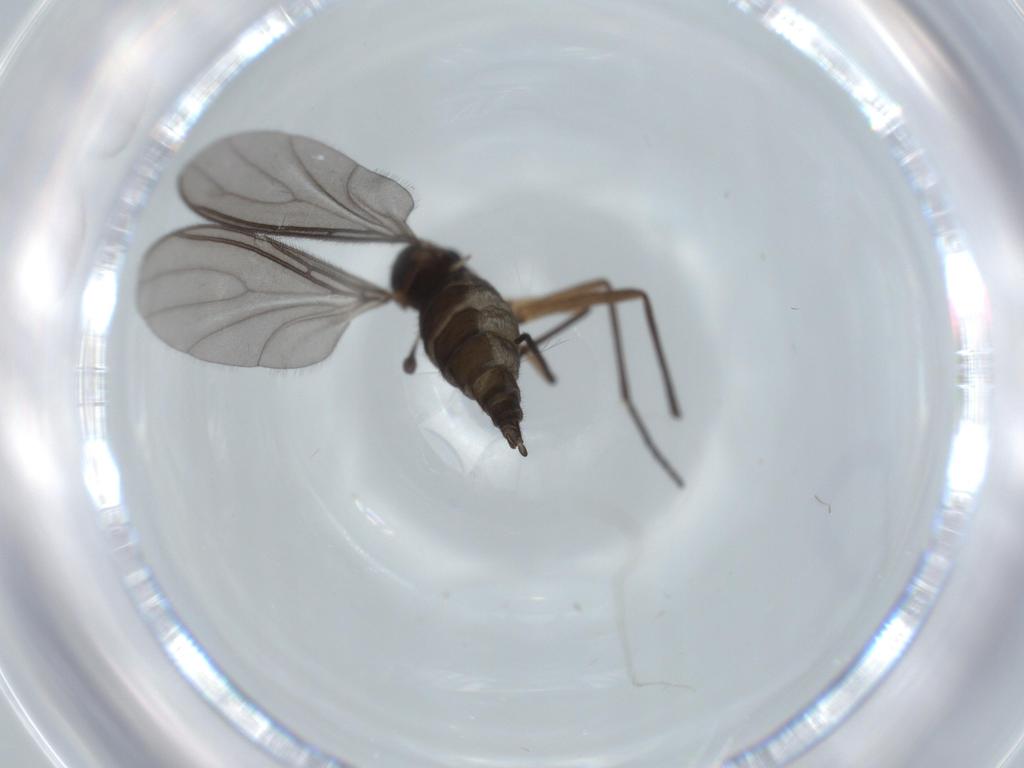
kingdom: Animalia
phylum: Arthropoda
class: Insecta
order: Diptera
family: Sciaridae
